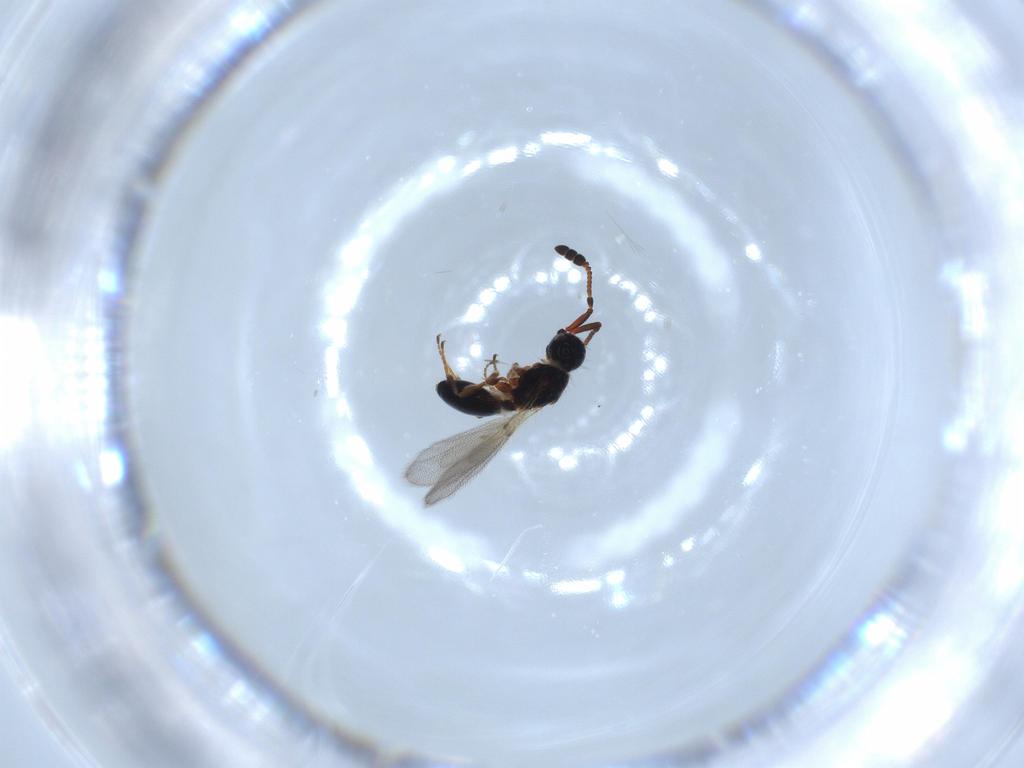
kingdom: Animalia
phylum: Arthropoda
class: Insecta
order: Hymenoptera
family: Diapriidae
